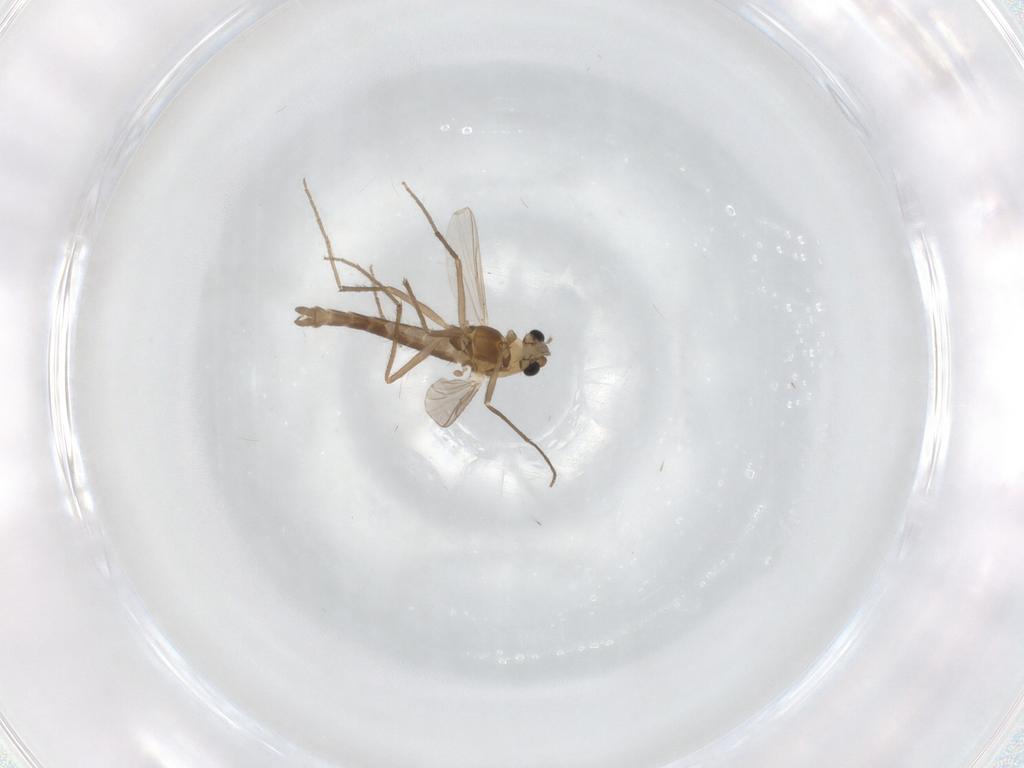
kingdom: Animalia
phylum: Arthropoda
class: Insecta
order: Diptera
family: Chironomidae
